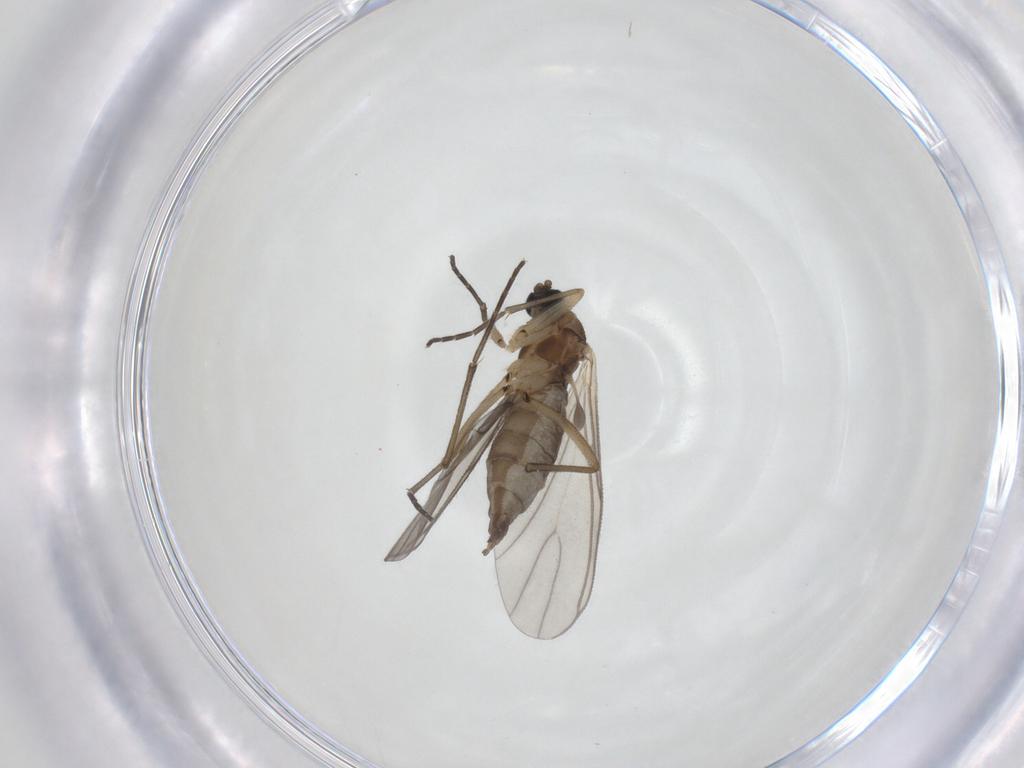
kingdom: Animalia
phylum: Arthropoda
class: Insecta
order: Diptera
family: Sciaridae
